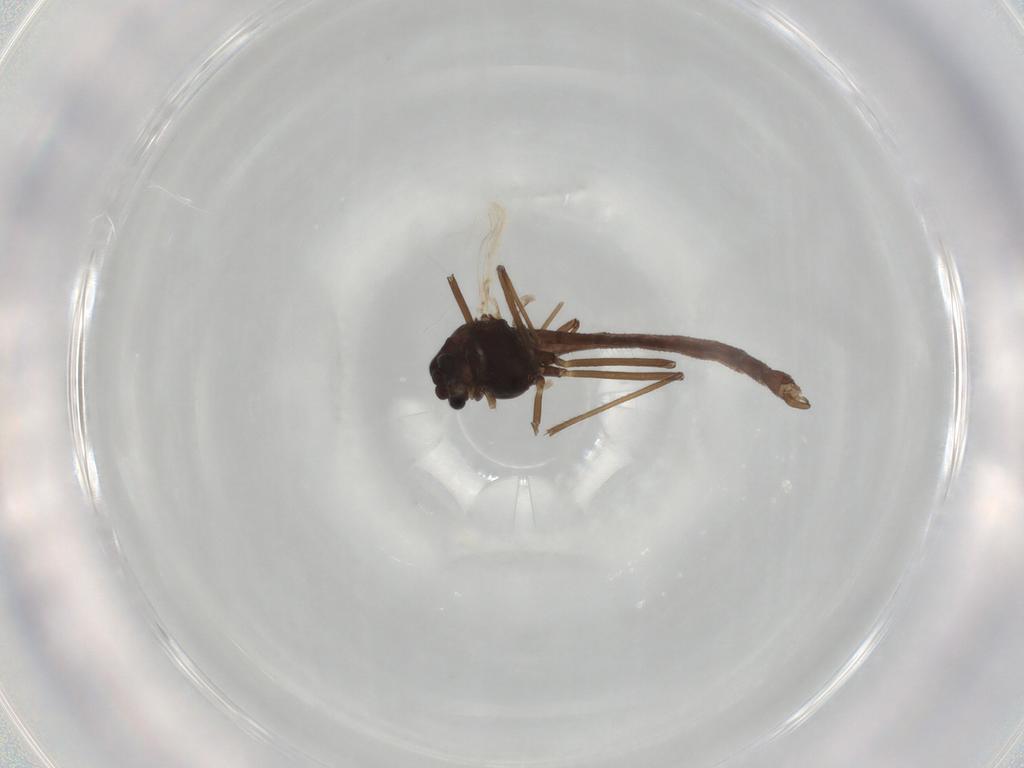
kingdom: Animalia
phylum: Arthropoda
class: Insecta
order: Diptera
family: Chironomidae
